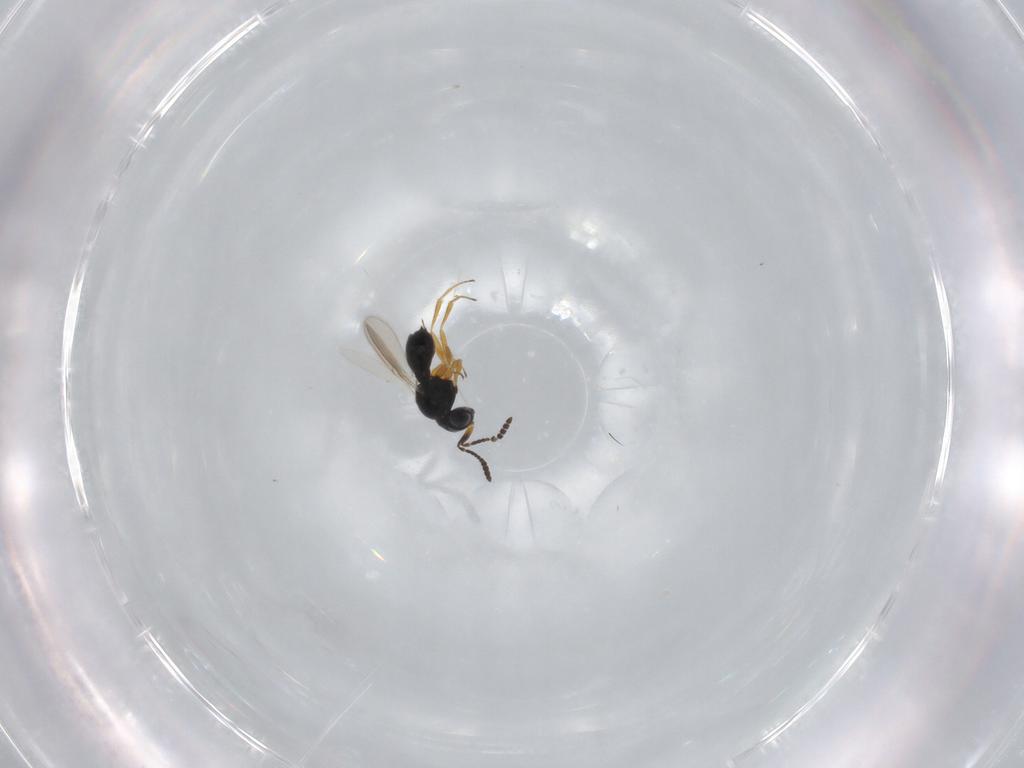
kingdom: Animalia
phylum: Arthropoda
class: Insecta
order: Hymenoptera
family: Scelionidae
